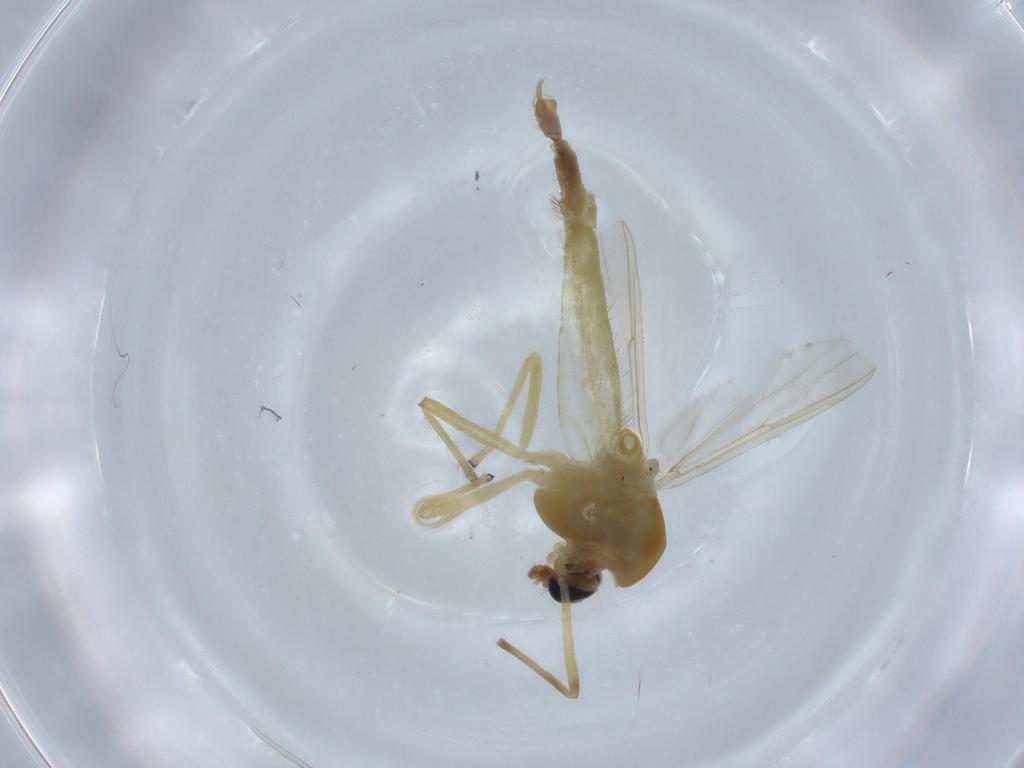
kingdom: Animalia
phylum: Arthropoda
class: Insecta
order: Diptera
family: Chironomidae
